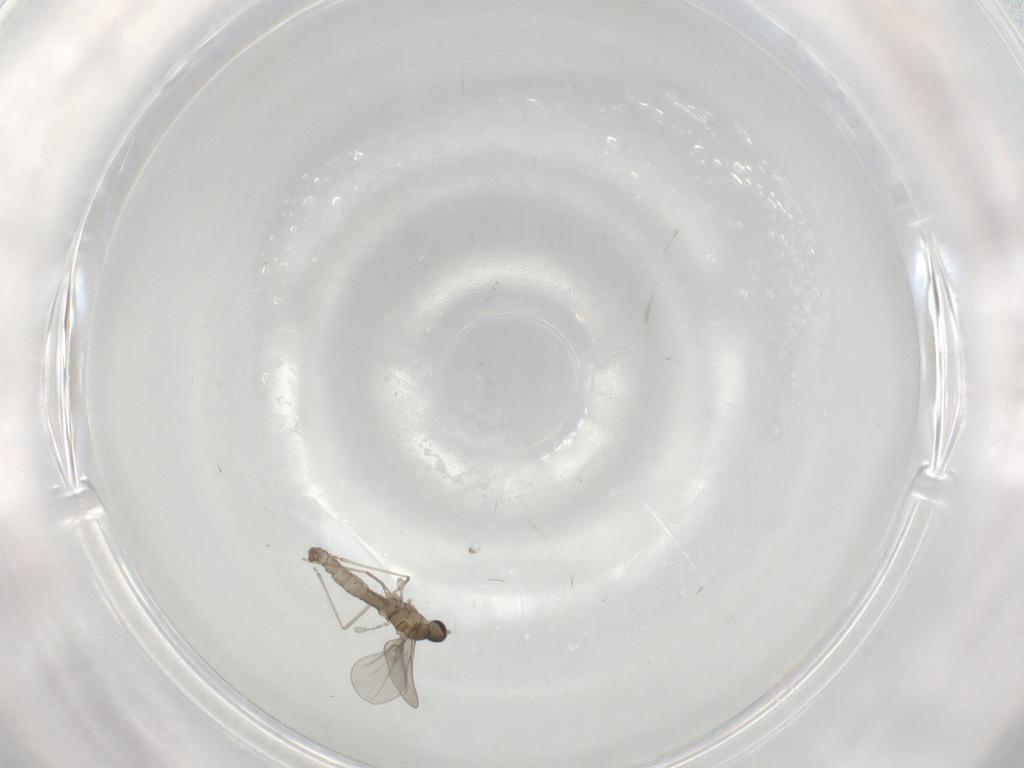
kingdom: Animalia
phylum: Arthropoda
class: Insecta
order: Diptera
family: Cecidomyiidae
